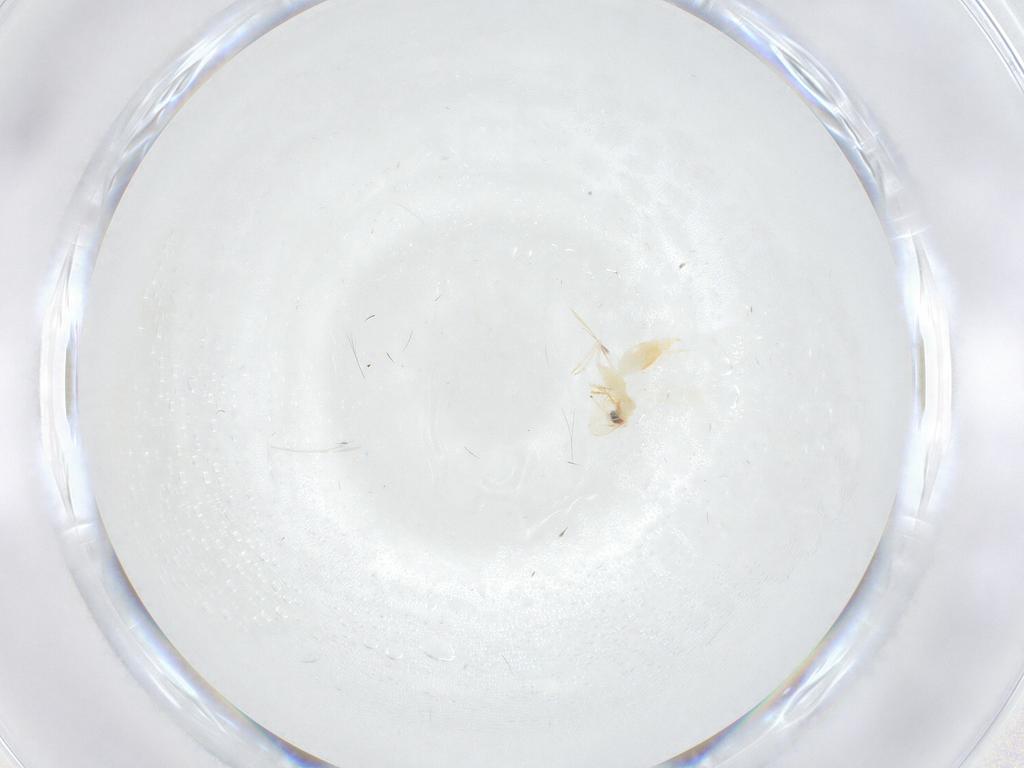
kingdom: Animalia
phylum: Arthropoda
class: Insecta
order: Hemiptera
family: Aleyrodidae
